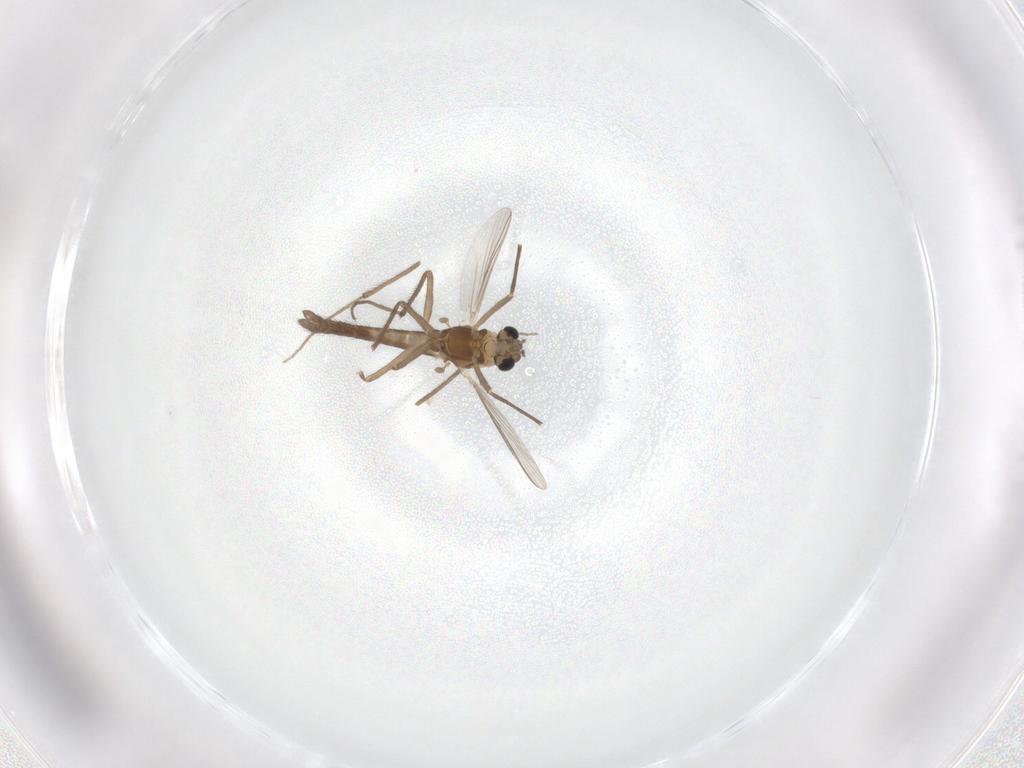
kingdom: Animalia
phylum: Arthropoda
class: Insecta
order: Diptera
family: Chironomidae
